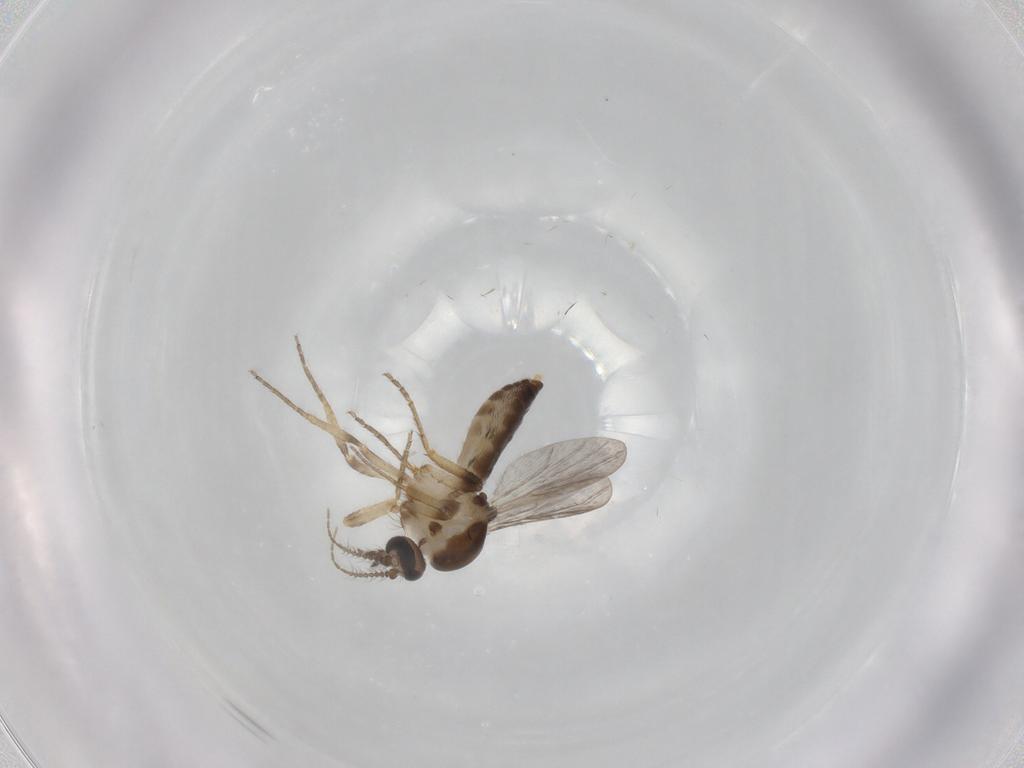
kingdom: Animalia
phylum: Arthropoda
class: Insecta
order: Diptera
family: Ceratopogonidae
